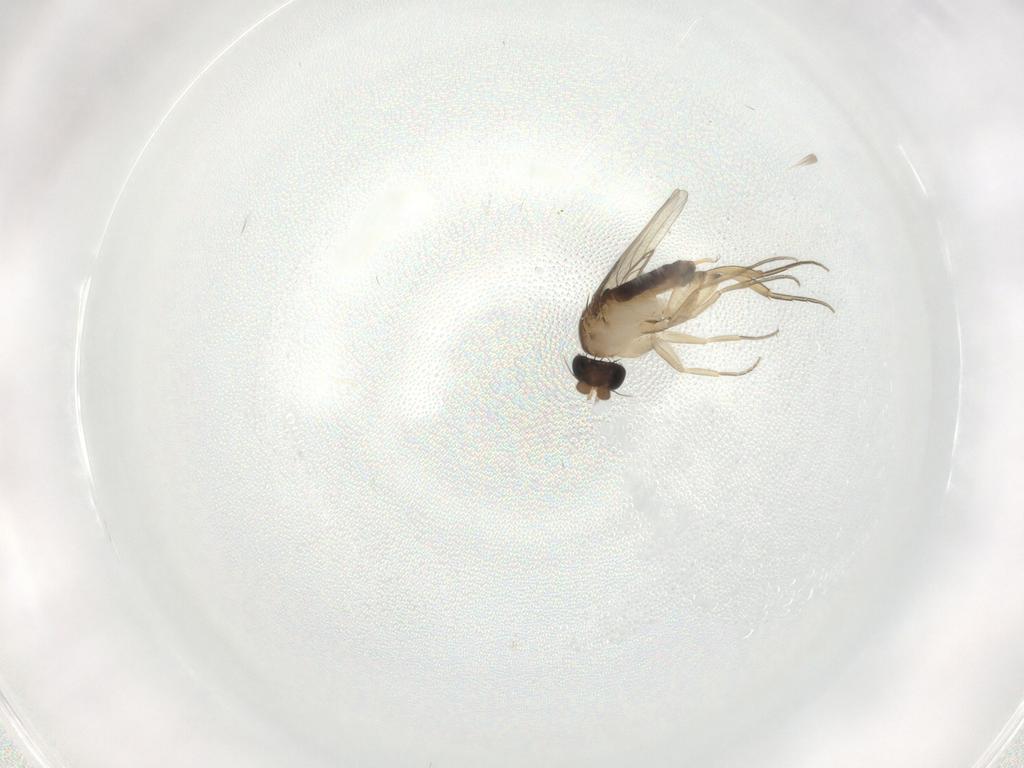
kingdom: Animalia
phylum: Arthropoda
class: Insecta
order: Diptera
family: Phoridae
